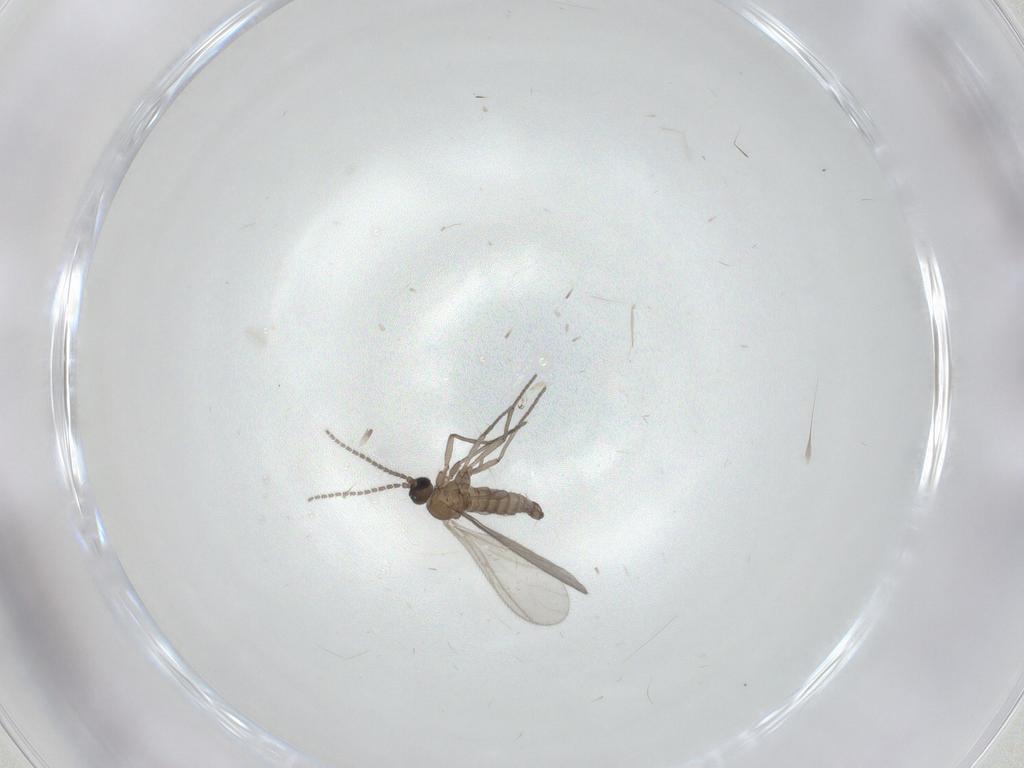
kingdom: Animalia
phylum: Arthropoda
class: Insecta
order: Diptera
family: Sciaridae
